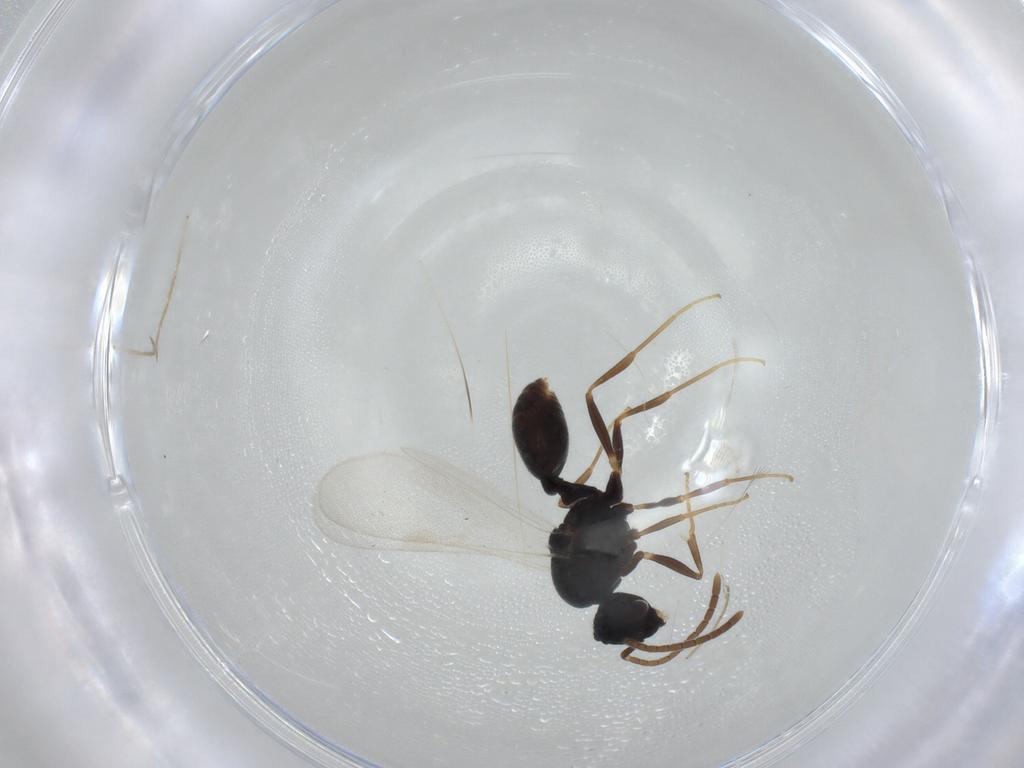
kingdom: Animalia
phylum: Arthropoda
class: Insecta
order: Hymenoptera
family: Formicidae
